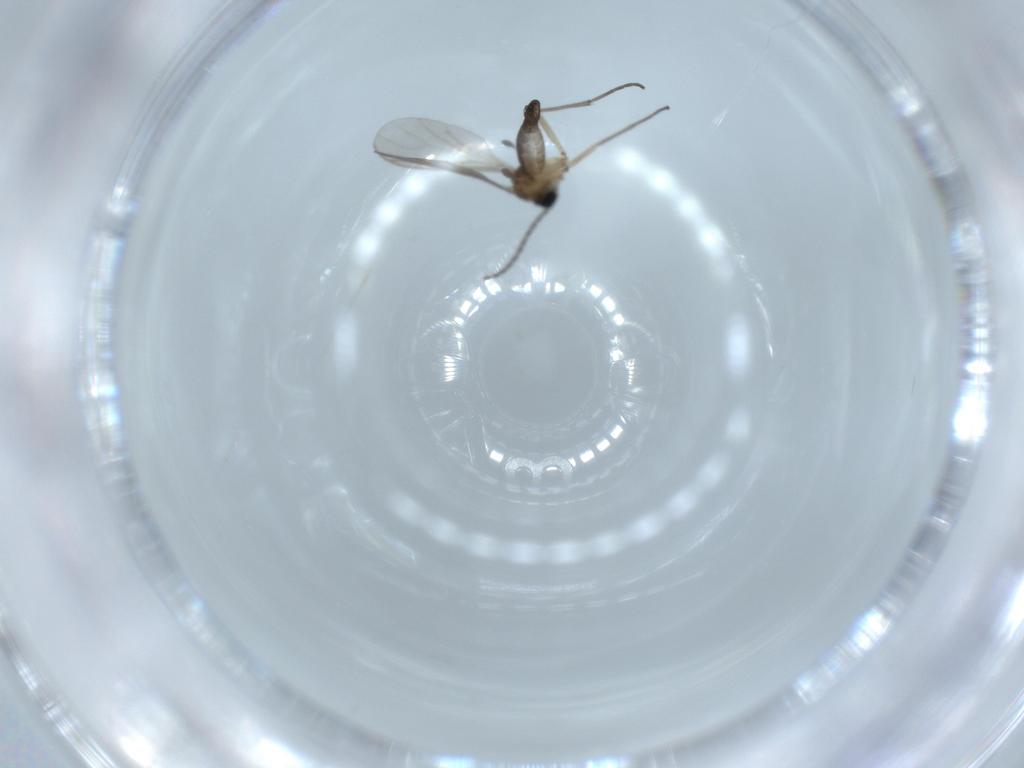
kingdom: Animalia
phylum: Arthropoda
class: Insecta
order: Diptera
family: Sciaridae
